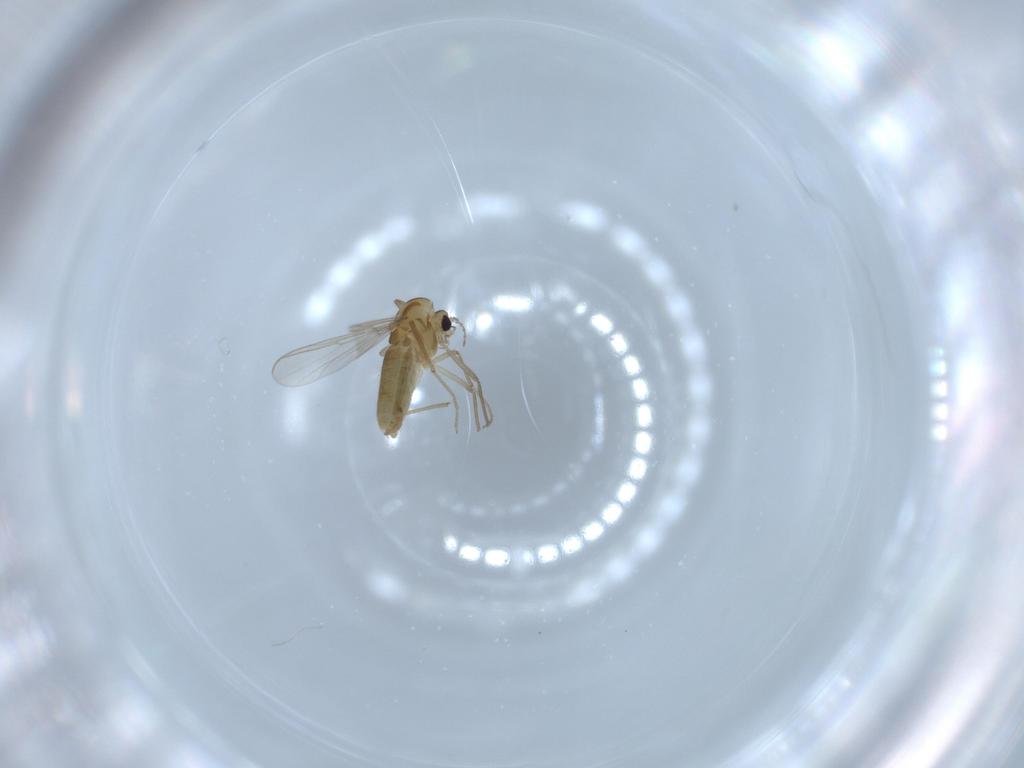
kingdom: Animalia
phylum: Arthropoda
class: Insecta
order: Diptera
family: Chironomidae
